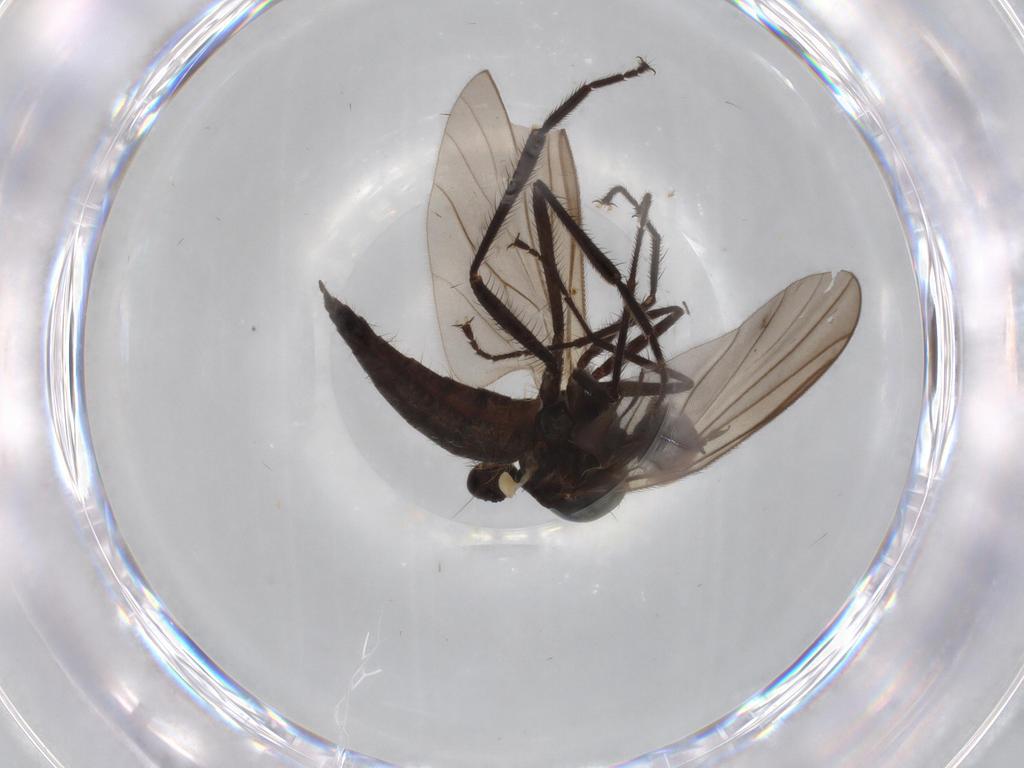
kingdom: Animalia
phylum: Arthropoda
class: Insecta
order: Diptera
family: Hybotidae
